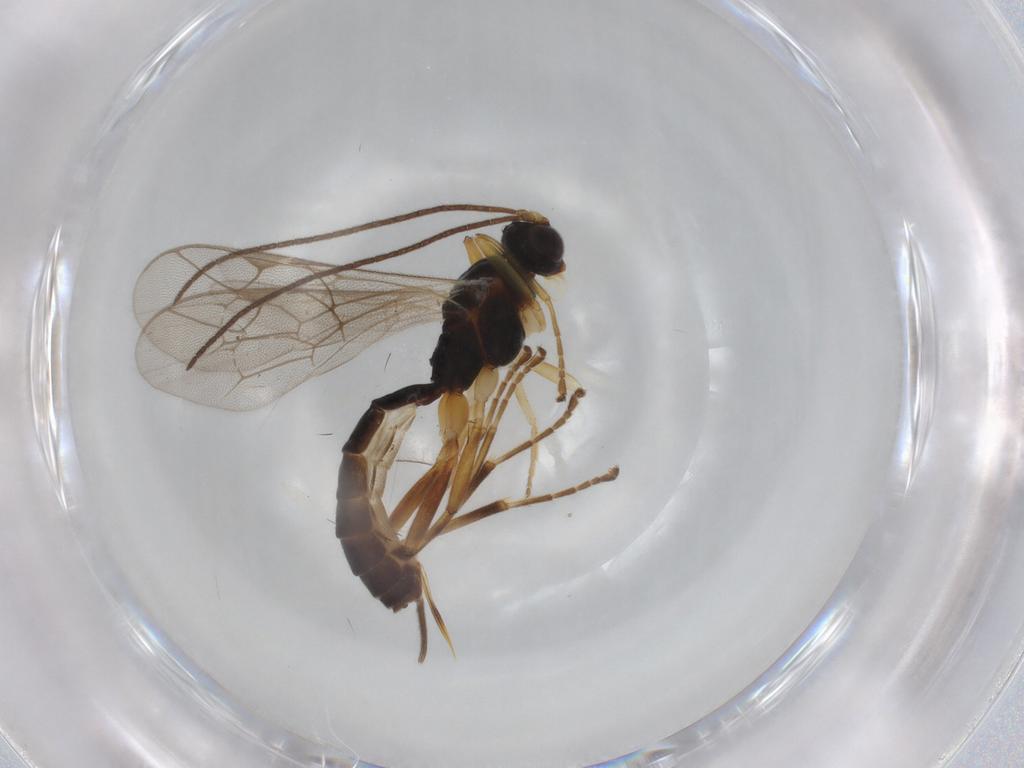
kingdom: Animalia
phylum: Arthropoda
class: Insecta
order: Hymenoptera
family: Ichneumonidae
